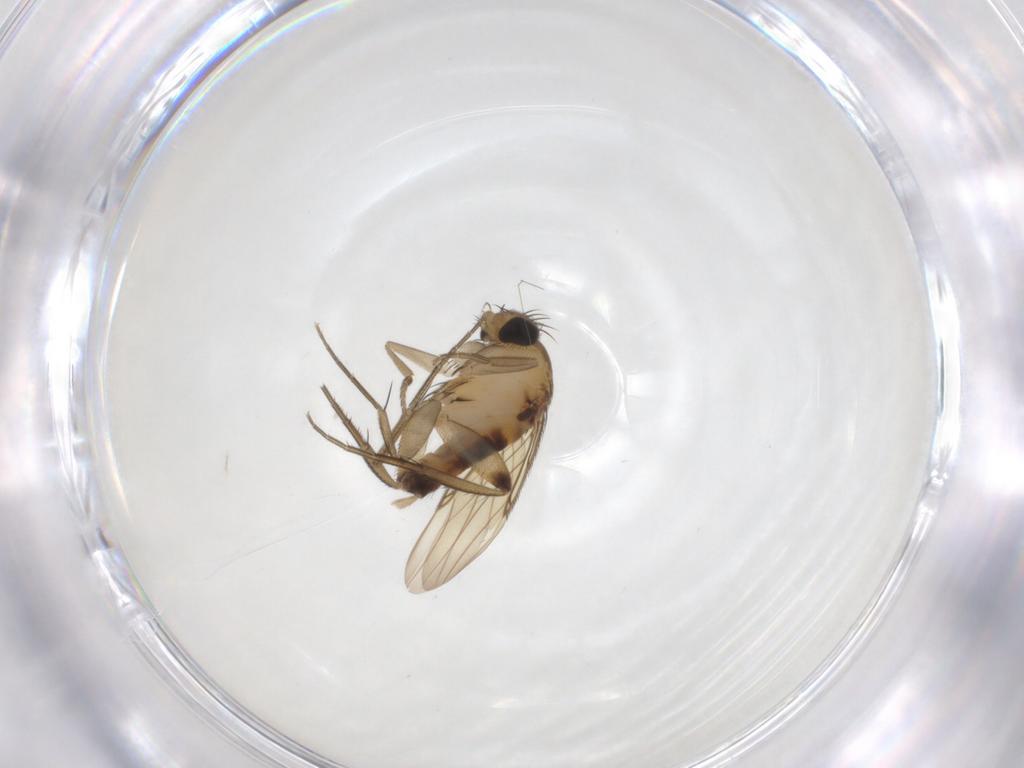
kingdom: Animalia
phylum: Arthropoda
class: Insecta
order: Diptera
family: Phoridae
